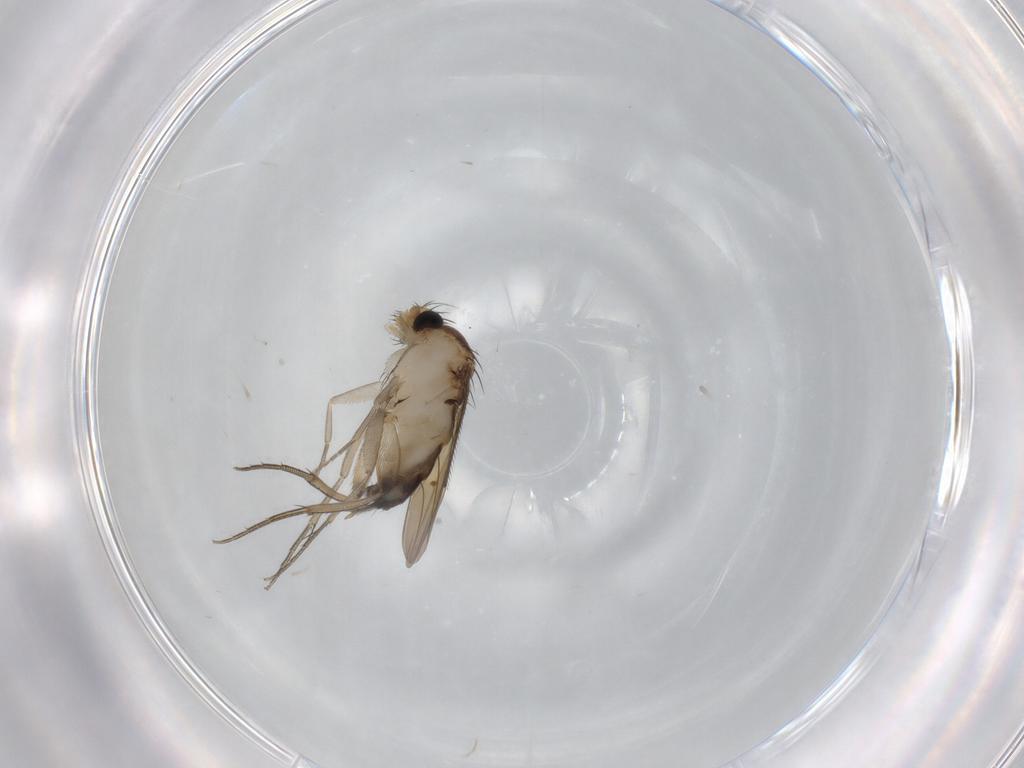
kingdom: Animalia
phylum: Arthropoda
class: Insecta
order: Diptera
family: Phoridae
